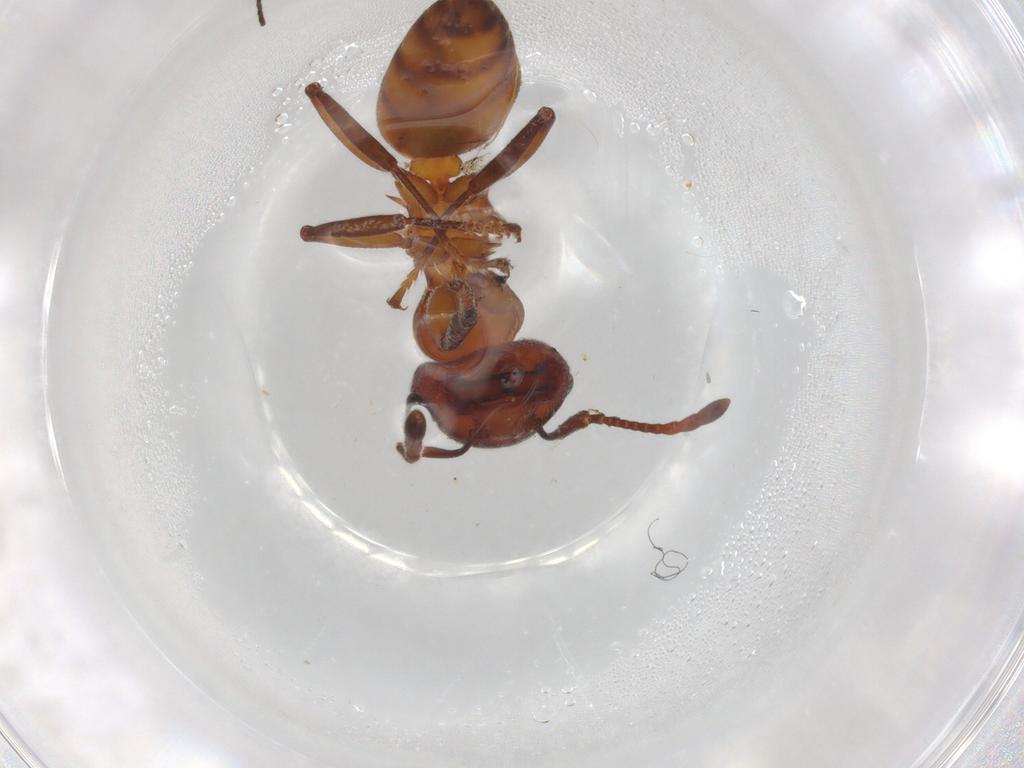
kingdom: Animalia
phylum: Arthropoda
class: Insecta
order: Hymenoptera
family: Formicidae
